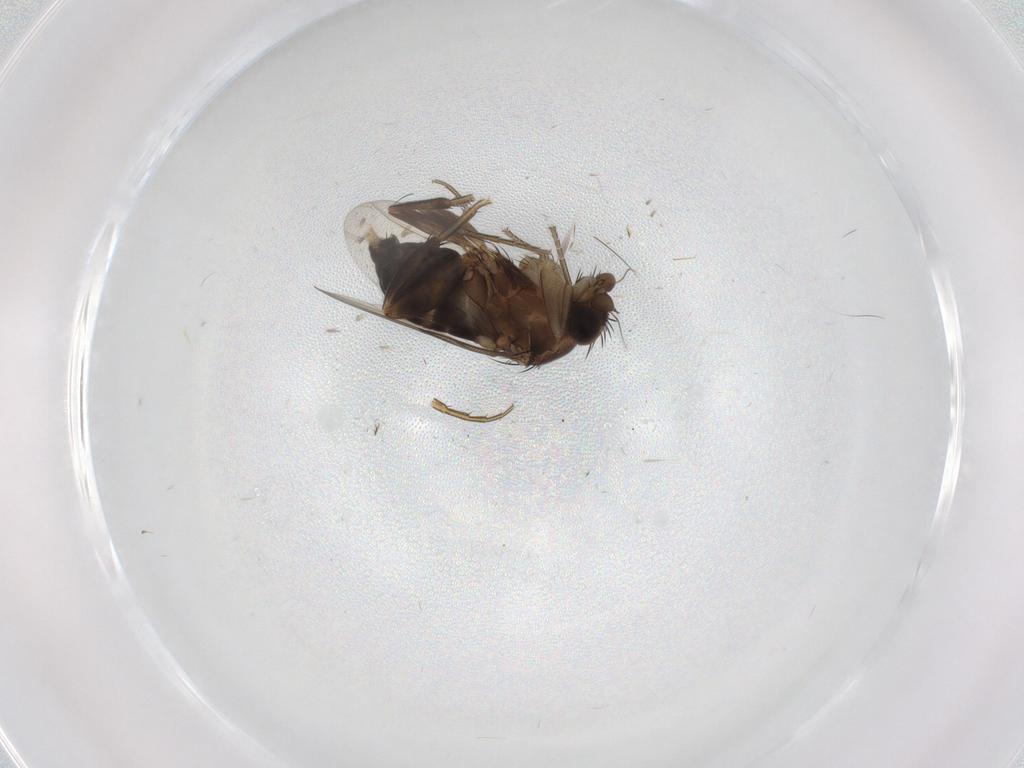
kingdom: Animalia
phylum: Arthropoda
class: Insecta
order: Diptera
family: Phoridae
